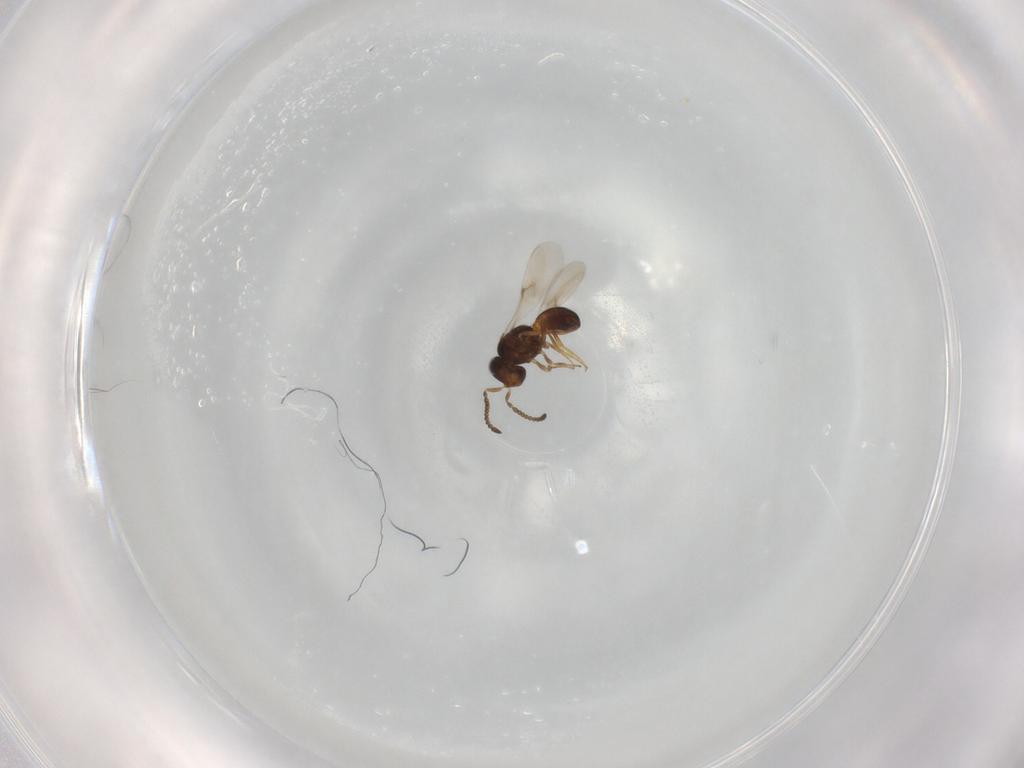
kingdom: Animalia
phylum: Arthropoda
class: Insecta
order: Hymenoptera
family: Scelionidae
